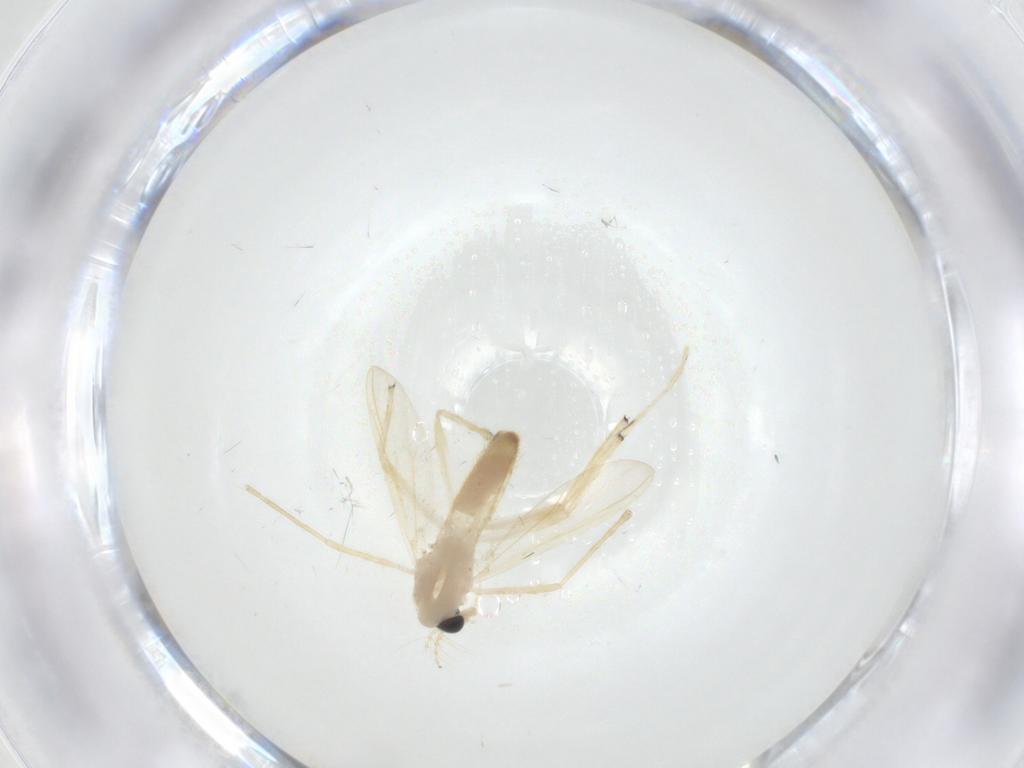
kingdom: Animalia
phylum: Arthropoda
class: Insecta
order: Diptera
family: Chironomidae
